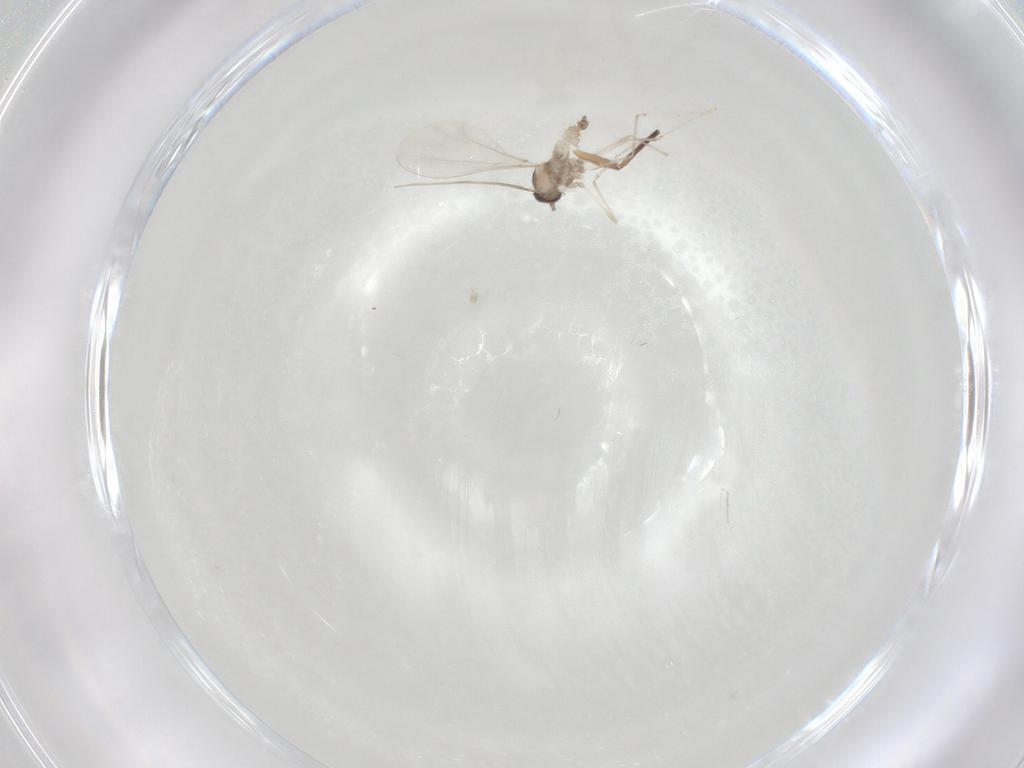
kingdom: Animalia
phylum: Arthropoda
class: Insecta
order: Diptera
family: Cecidomyiidae
